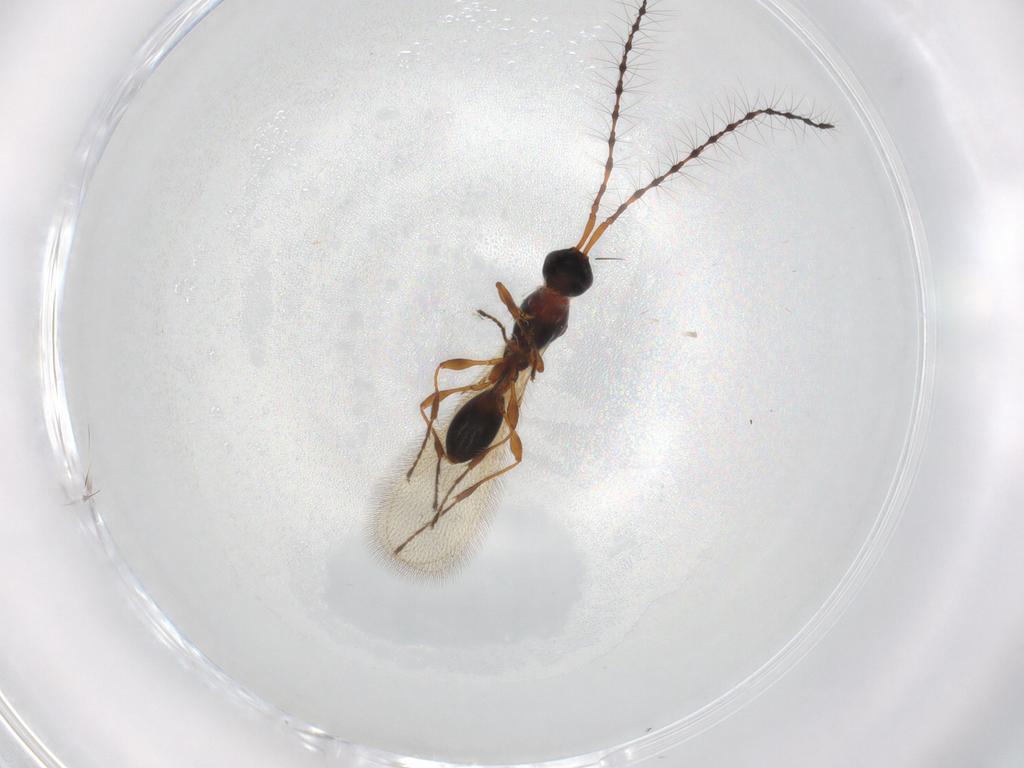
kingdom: Animalia
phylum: Arthropoda
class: Insecta
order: Hymenoptera
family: Diapriidae
